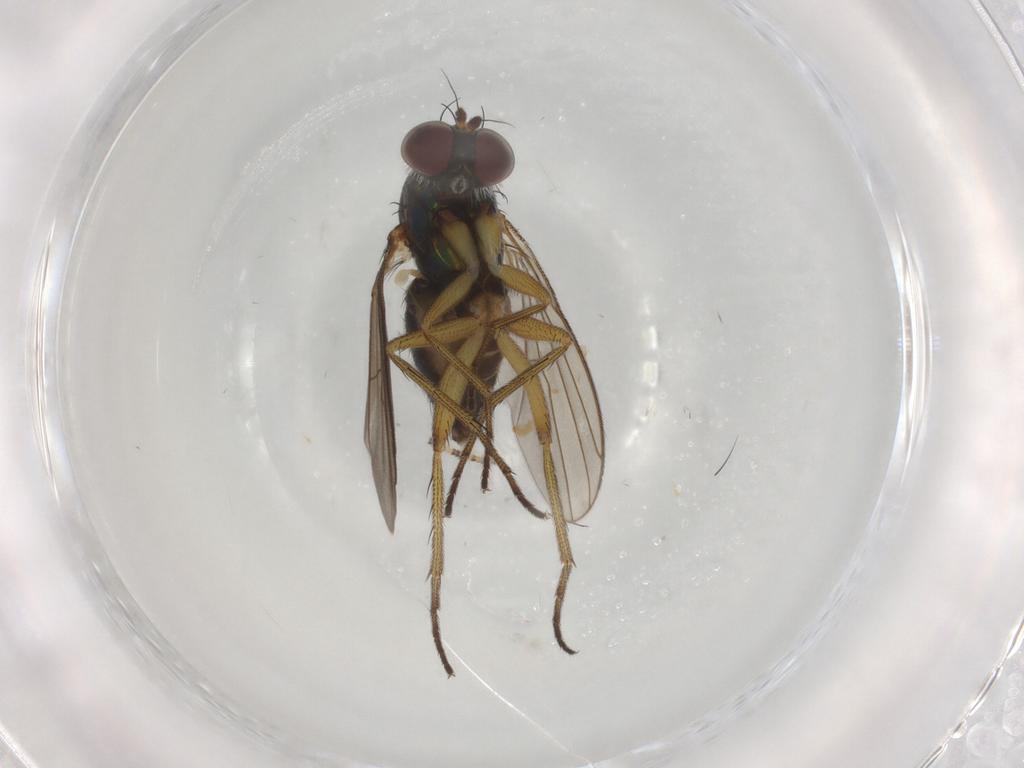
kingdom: Animalia
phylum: Arthropoda
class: Insecta
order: Diptera
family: Dolichopodidae
